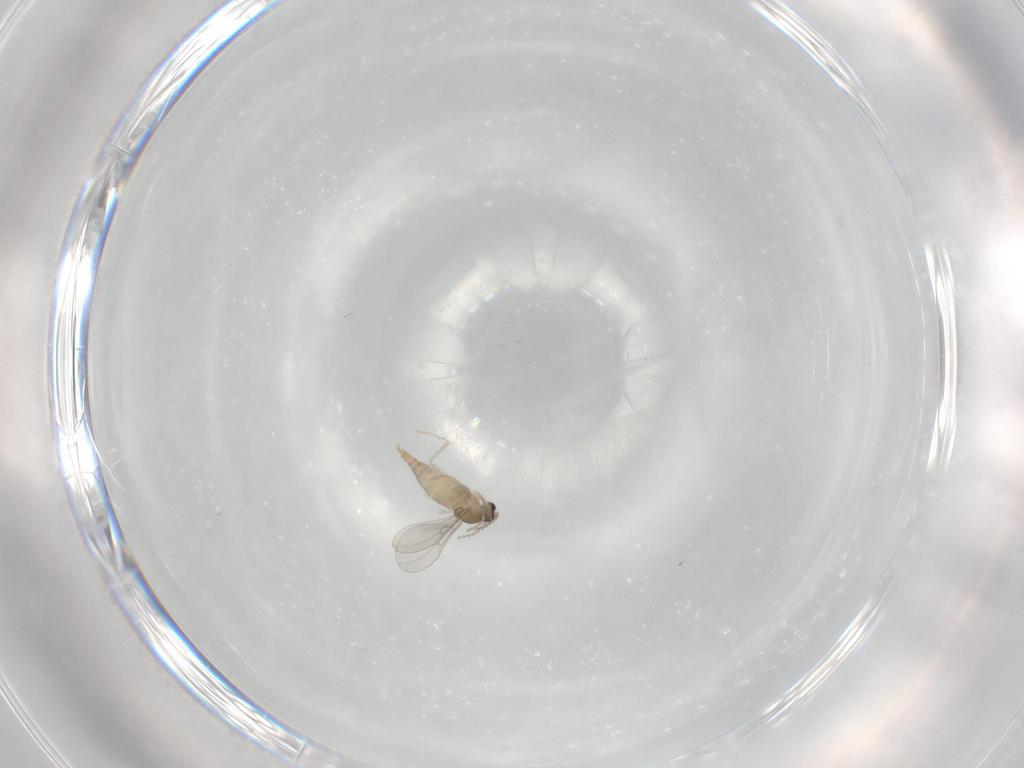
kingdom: Animalia
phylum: Arthropoda
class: Insecta
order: Diptera
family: Cecidomyiidae
